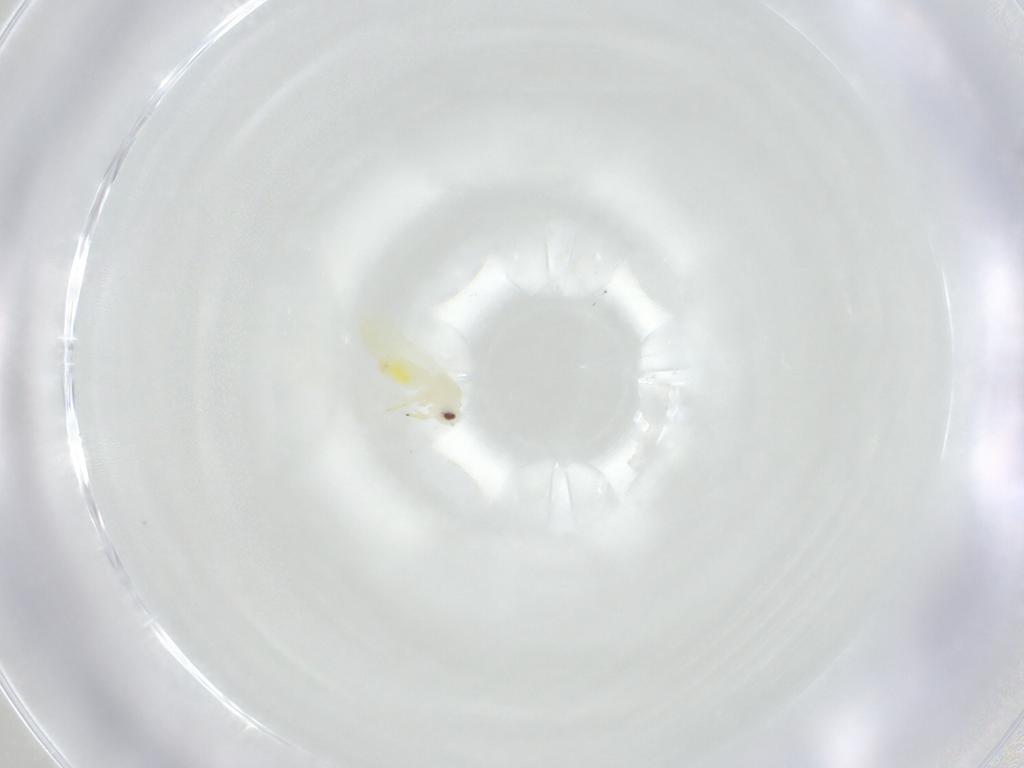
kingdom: Animalia
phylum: Arthropoda
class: Insecta
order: Hemiptera
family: Aleyrodidae
